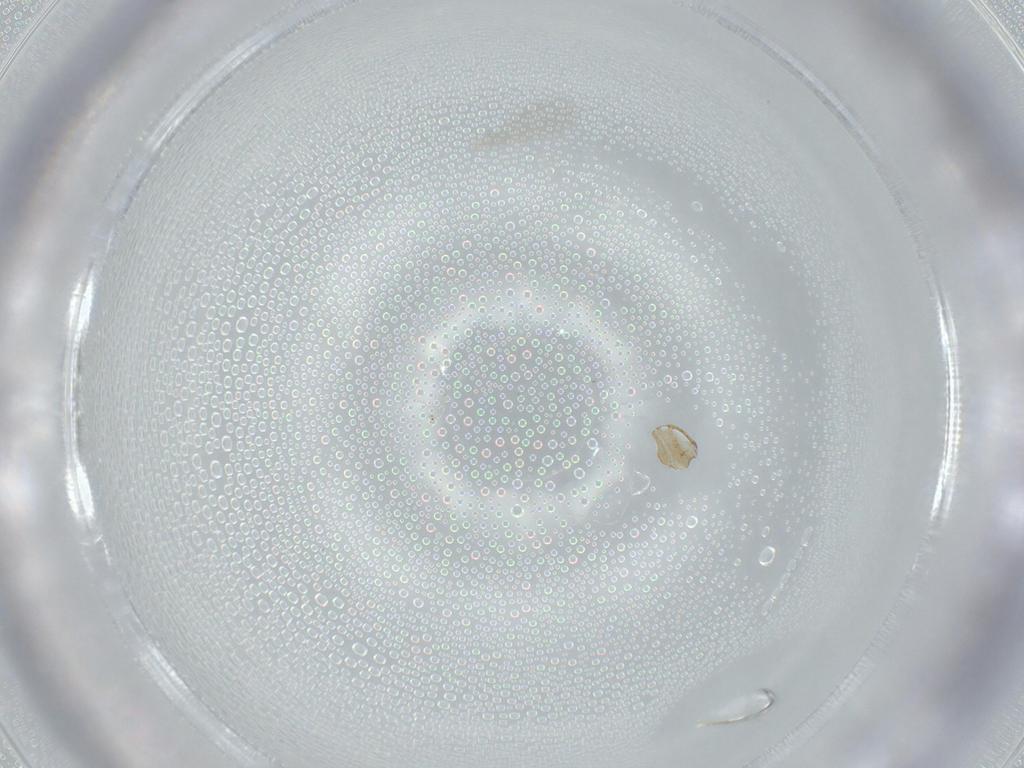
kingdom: Animalia
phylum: Arthropoda
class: Insecta
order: Diptera
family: Cecidomyiidae
